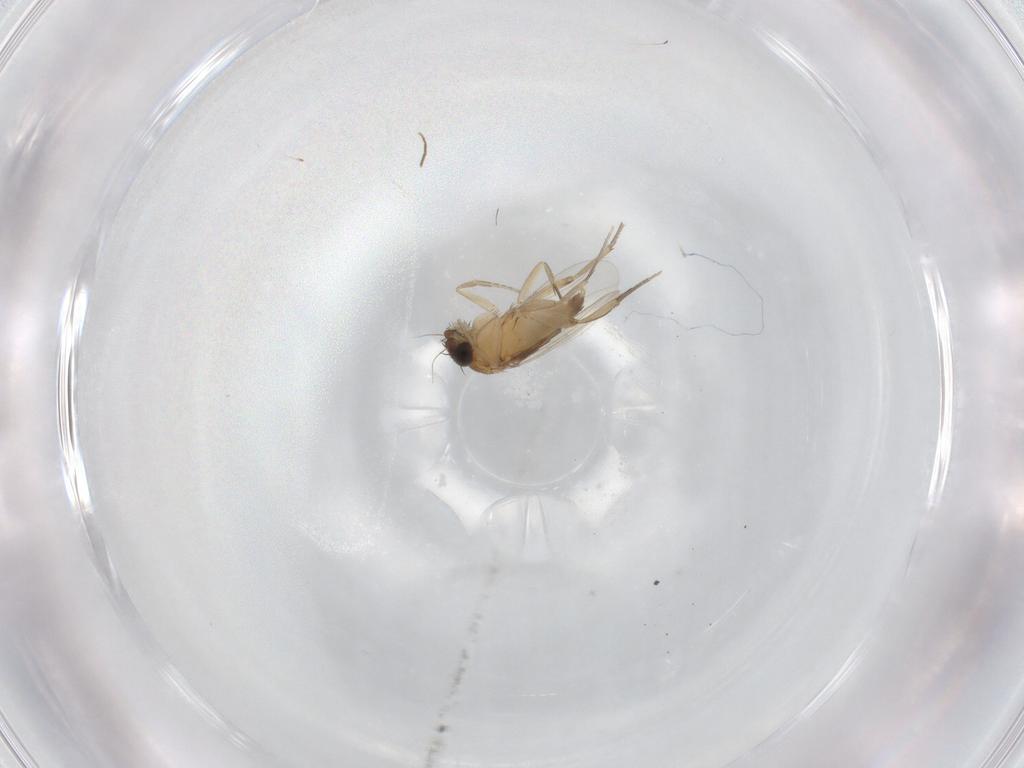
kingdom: Animalia
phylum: Arthropoda
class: Insecta
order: Diptera
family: Phoridae
